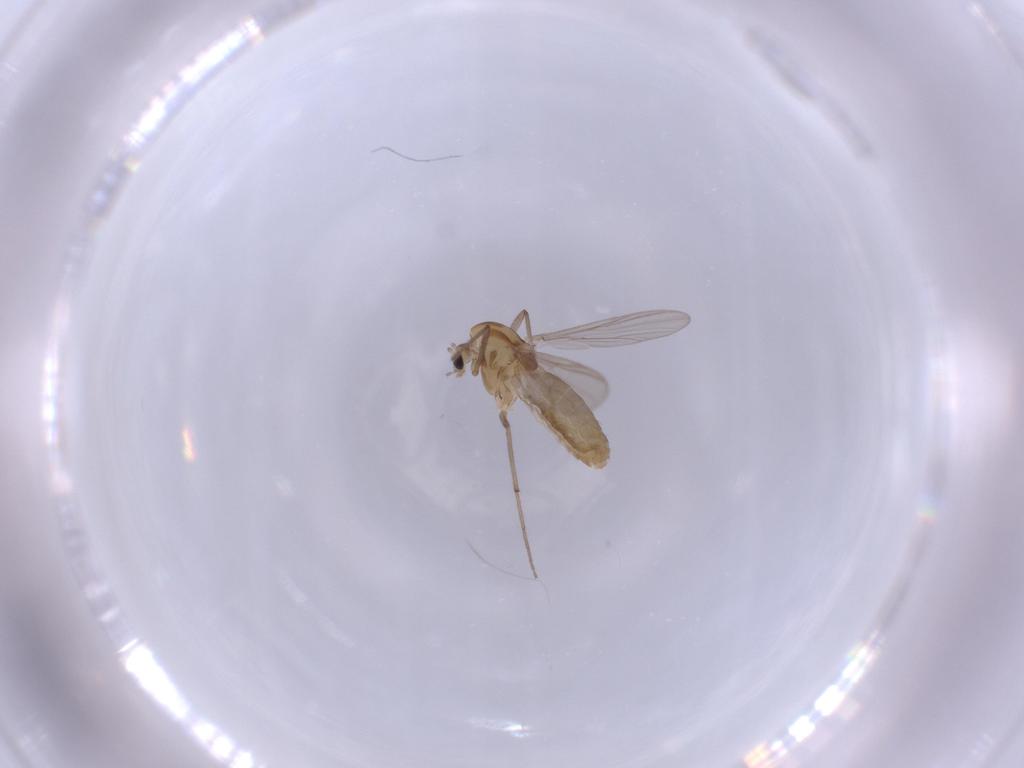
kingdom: Animalia
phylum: Arthropoda
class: Insecta
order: Diptera
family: Chironomidae
